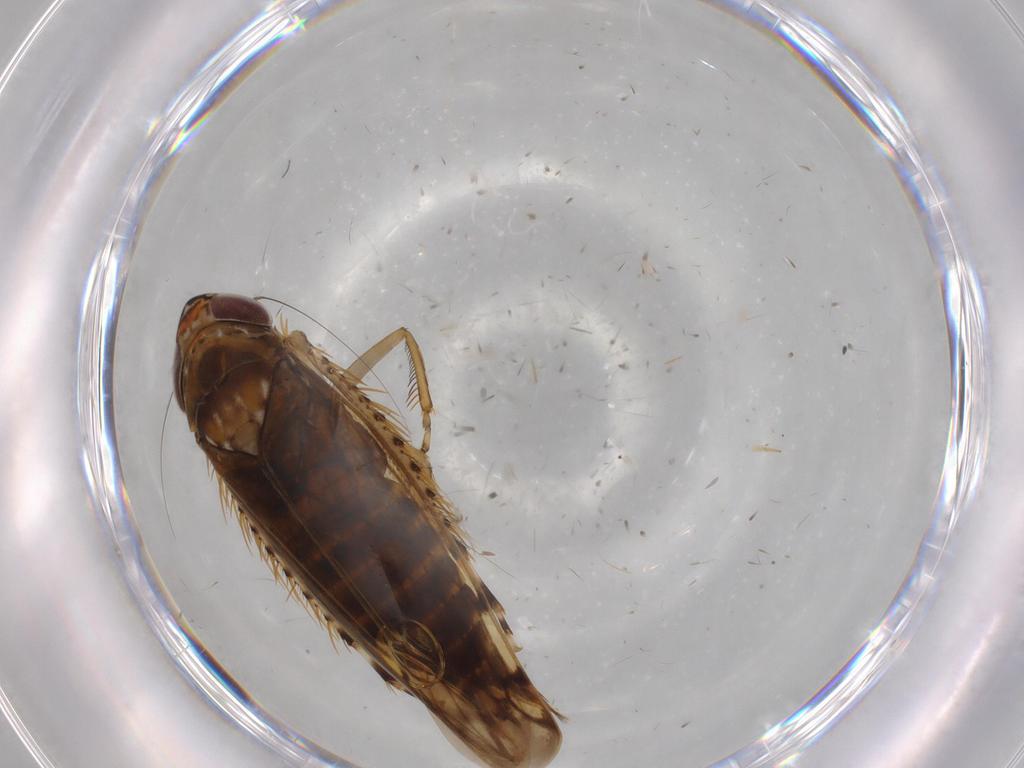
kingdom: Animalia
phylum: Arthropoda
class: Insecta
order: Hemiptera
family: Cicadellidae
